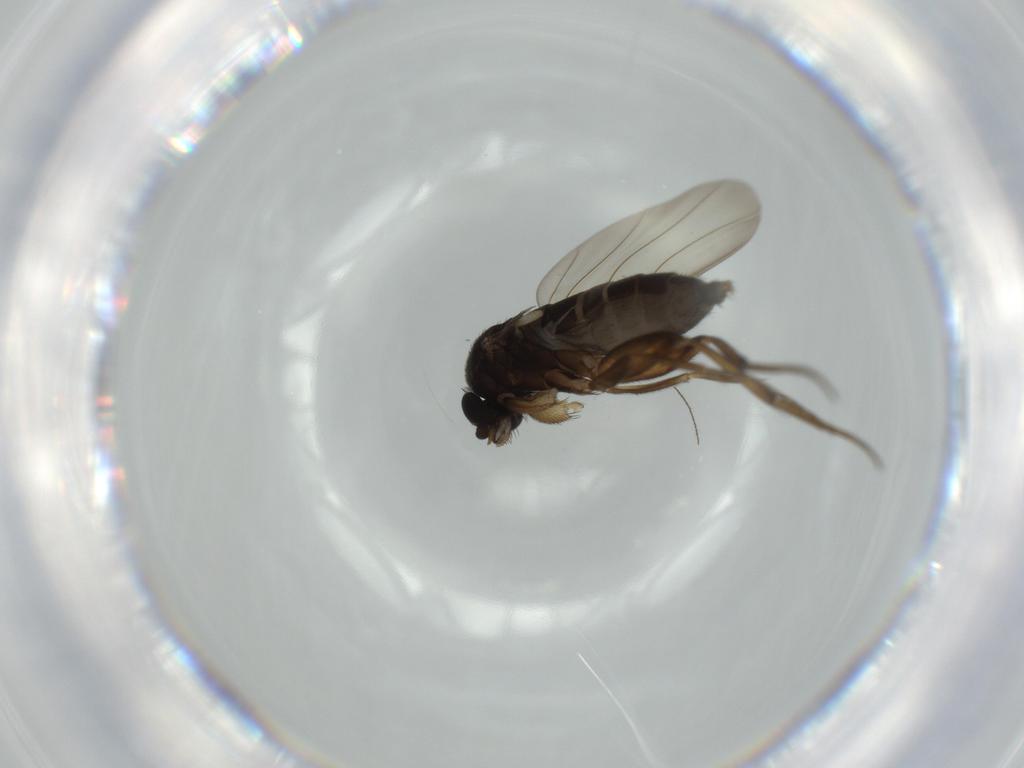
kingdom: Animalia
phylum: Arthropoda
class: Insecta
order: Diptera
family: Phoridae
